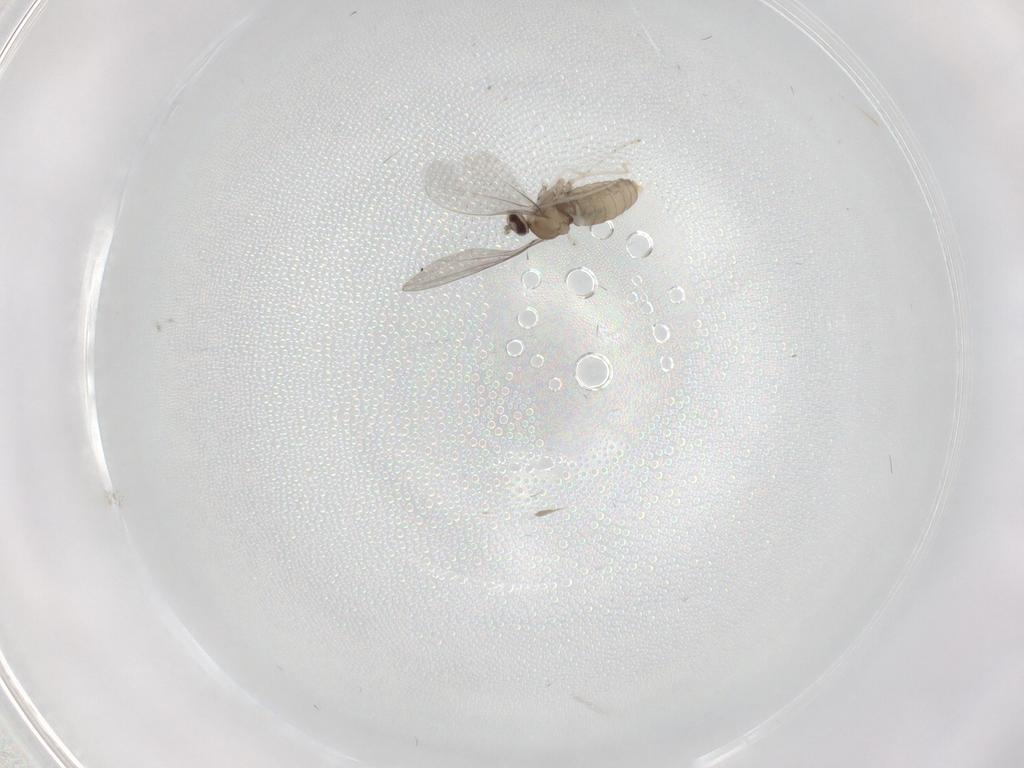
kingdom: Animalia
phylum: Arthropoda
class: Insecta
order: Diptera
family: Cecidomyiidae
